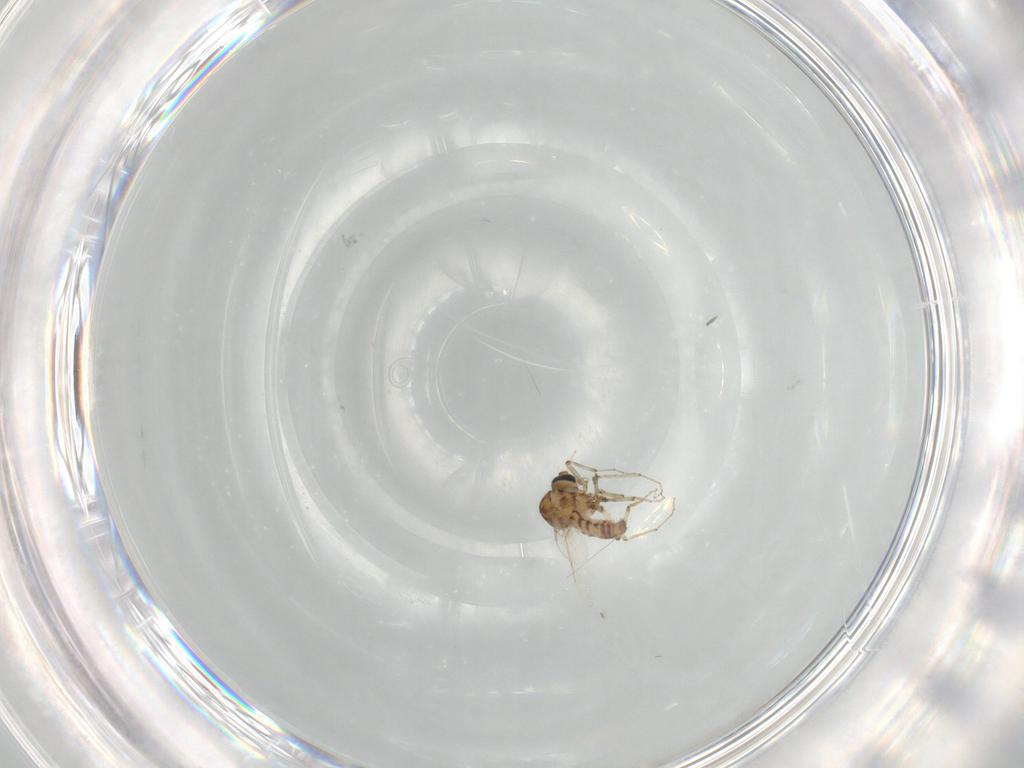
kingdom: Animalia
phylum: Arthropoda
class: Insecta
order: Diptera
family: Ceratopogonidae
